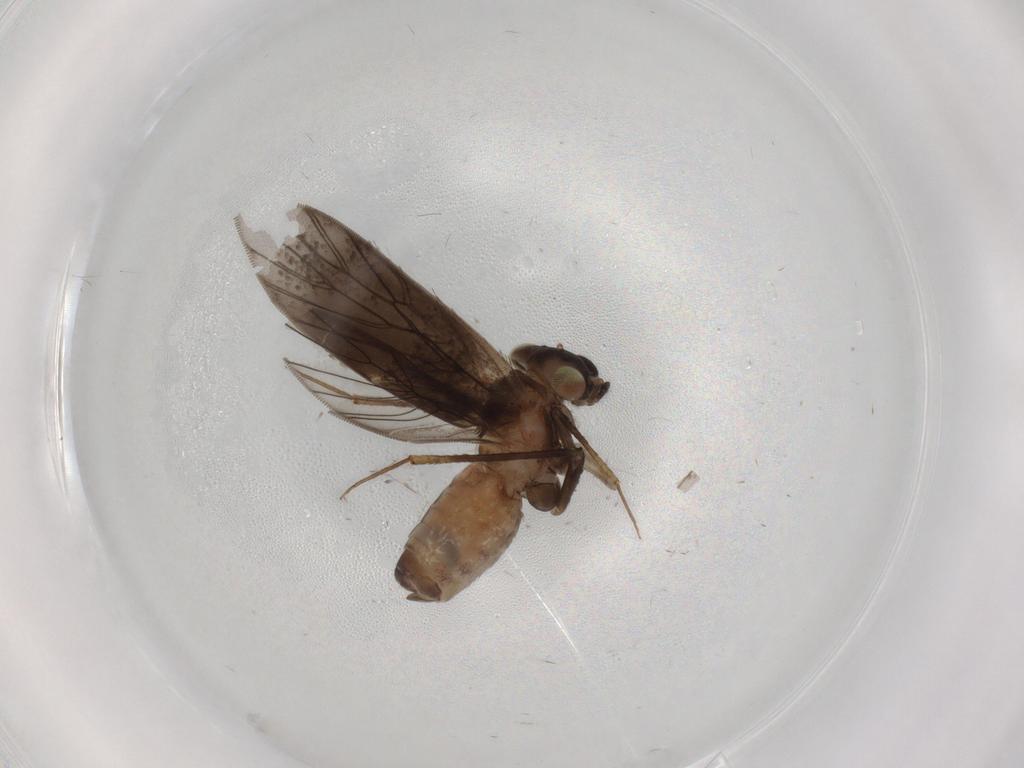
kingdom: Animalia
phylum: Arthropoda
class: Insecta
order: Psocodea
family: Lepidopsocidae
